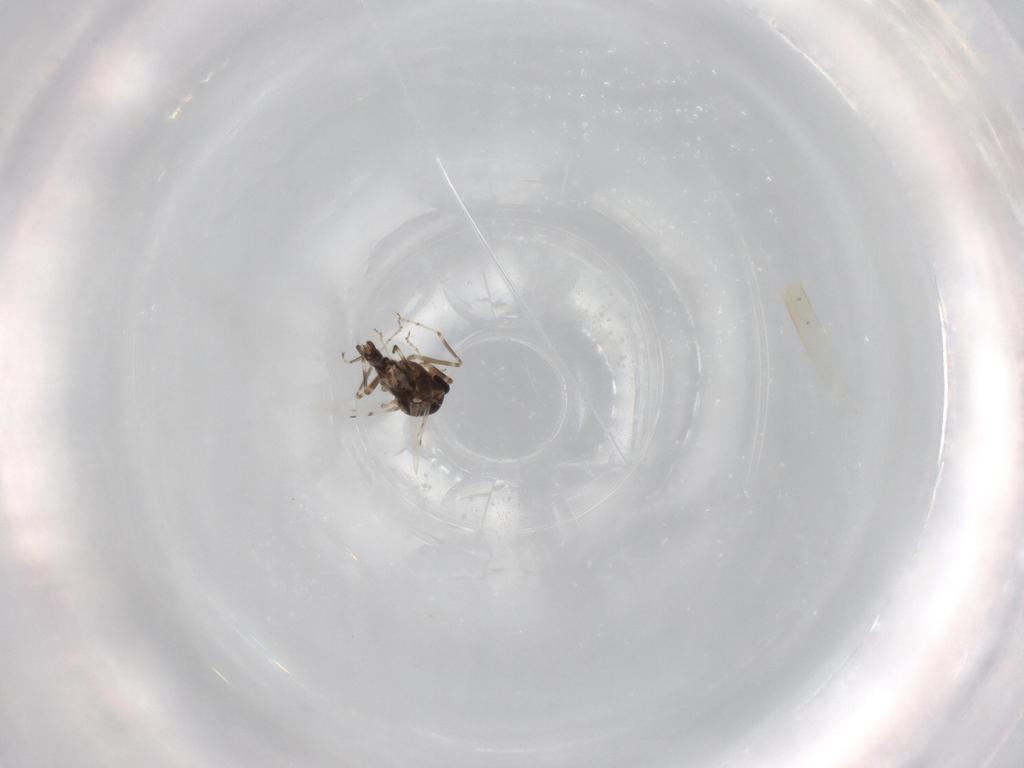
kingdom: Animalia
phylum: Arthropoda
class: Insecta
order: Diptera
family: Ceratopogonidae
